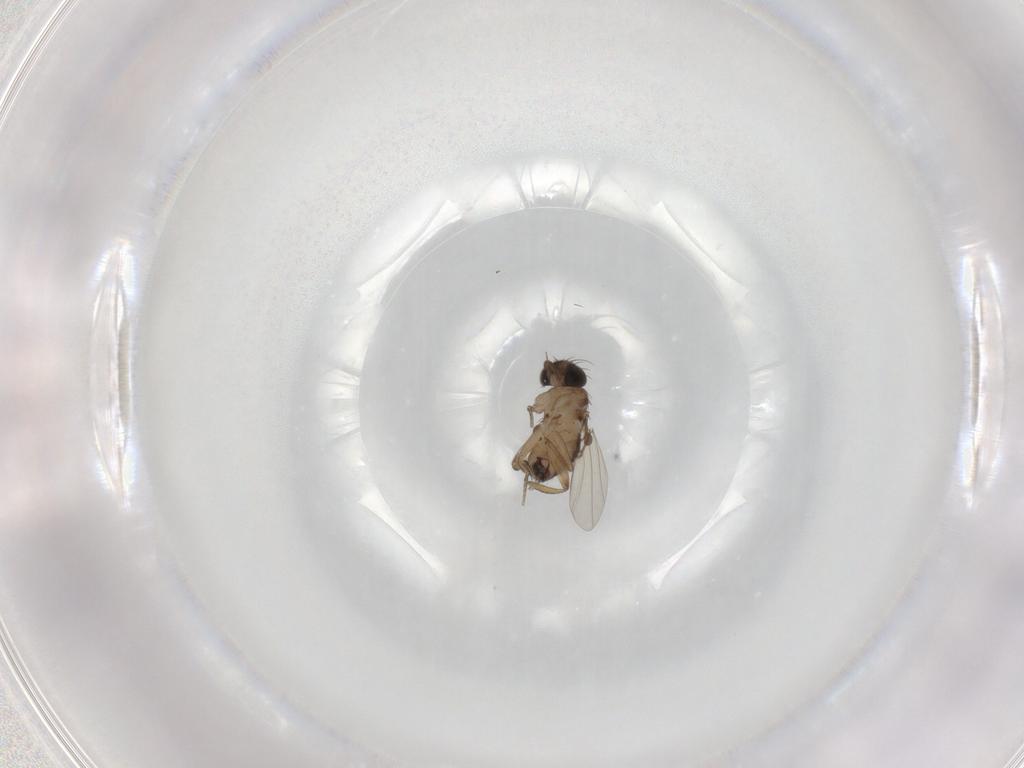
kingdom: Animalia
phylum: Arthropoda
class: Insecta
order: Diptera
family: Phoridae
